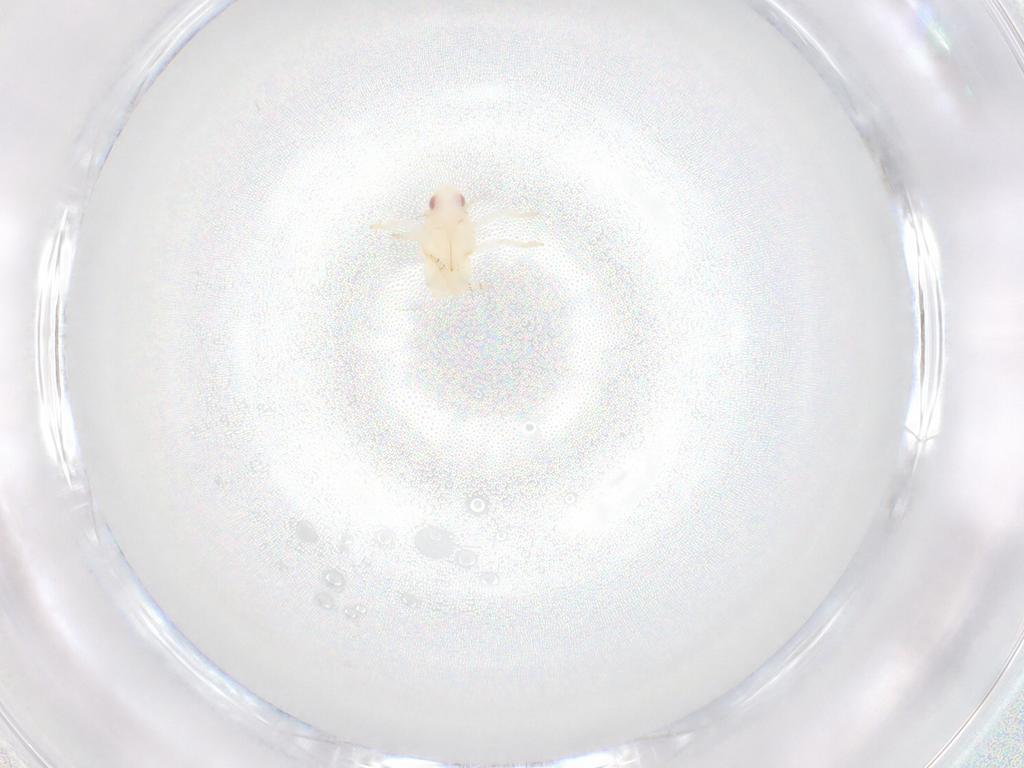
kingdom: Animalia
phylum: Arthropoda
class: Insecta
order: Hemiptera
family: Flatidae
